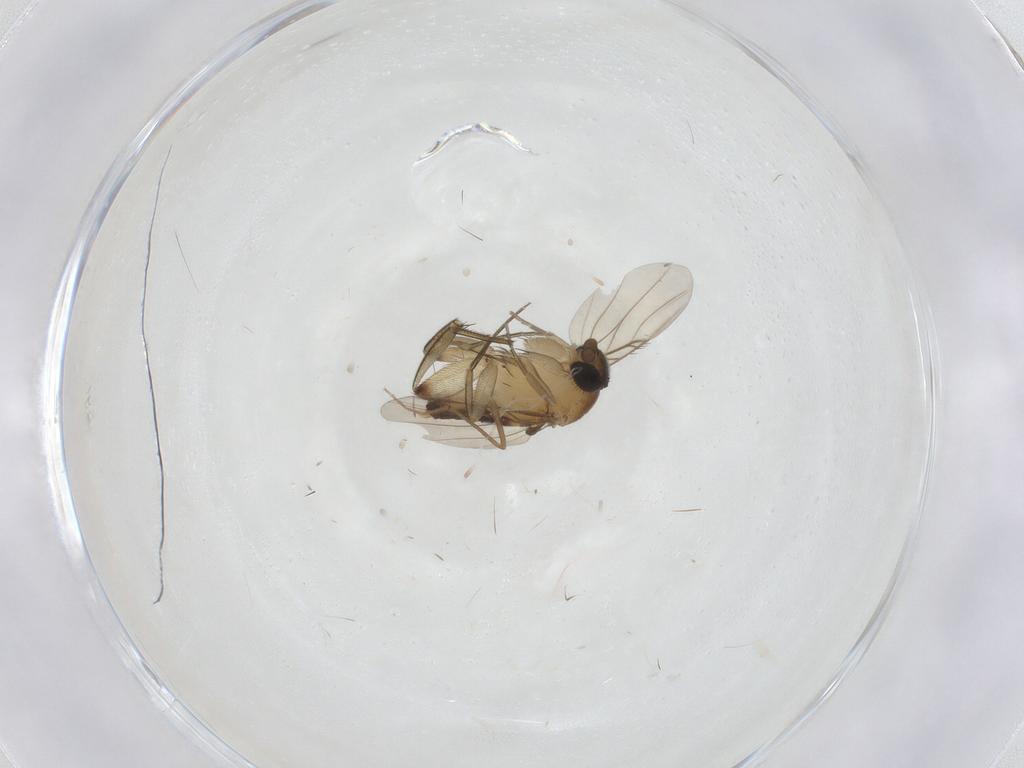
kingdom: Animalia
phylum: Arthropoda
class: Insecta
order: Diptera
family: Phoridae
